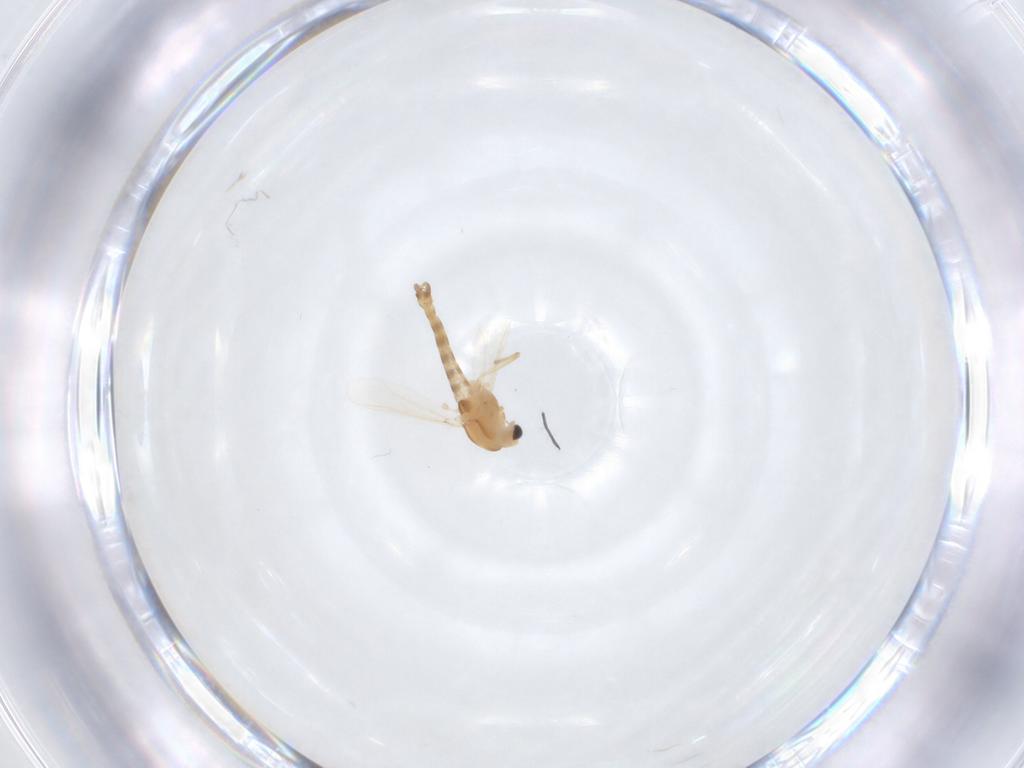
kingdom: Animalia
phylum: Arthropoda
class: Insecta
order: Diptera
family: Chironomidae
